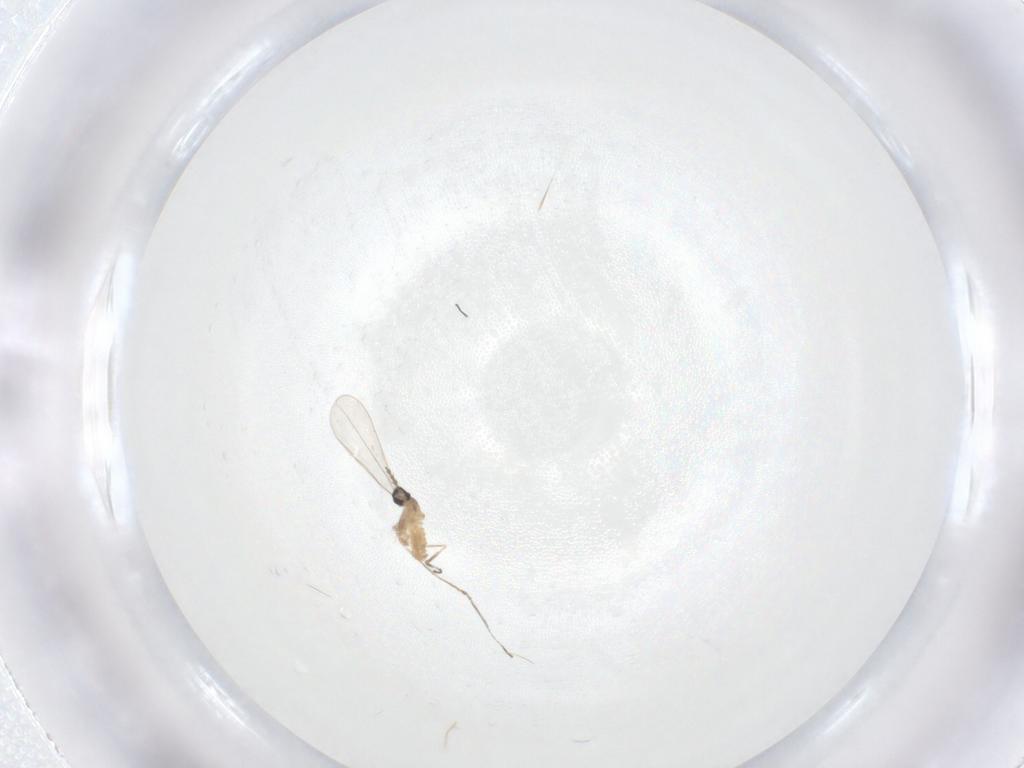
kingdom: Animalia
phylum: Arthropoda
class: Insecta
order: Diptera
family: Cecidomyiidae
